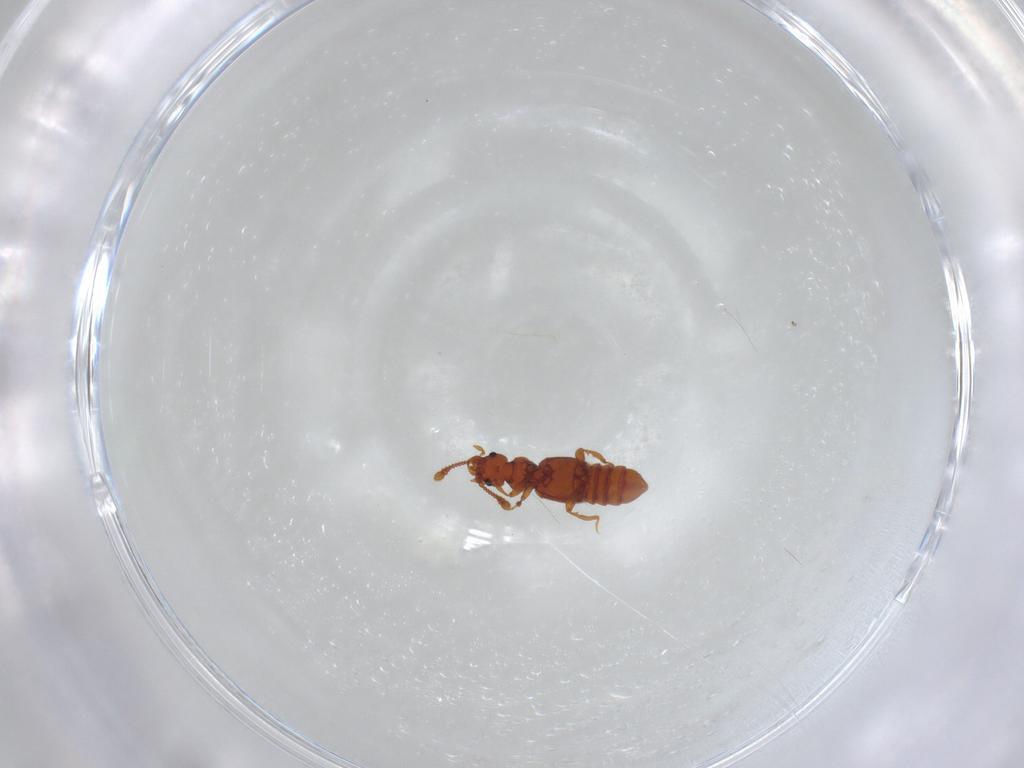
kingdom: Animalia
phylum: Arthropoda
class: Insecta
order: Coleoptera
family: Staphylinidae
